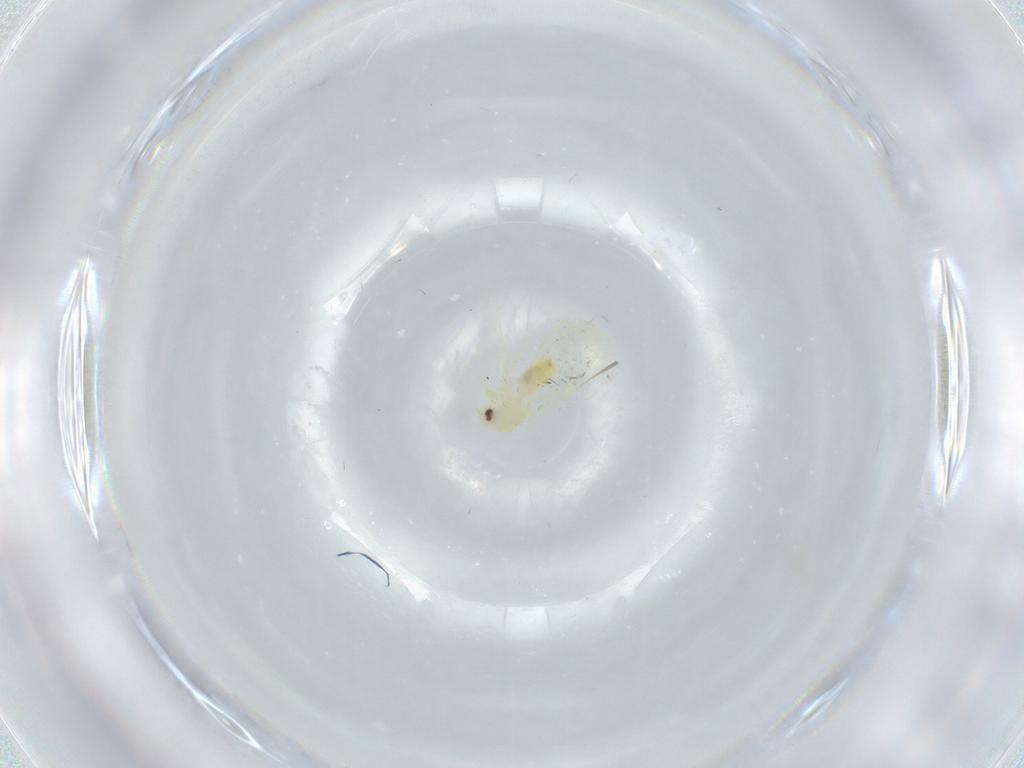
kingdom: Animalia
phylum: Arthropoda
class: Insecta
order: Hemiptera
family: Aleyrodidae
